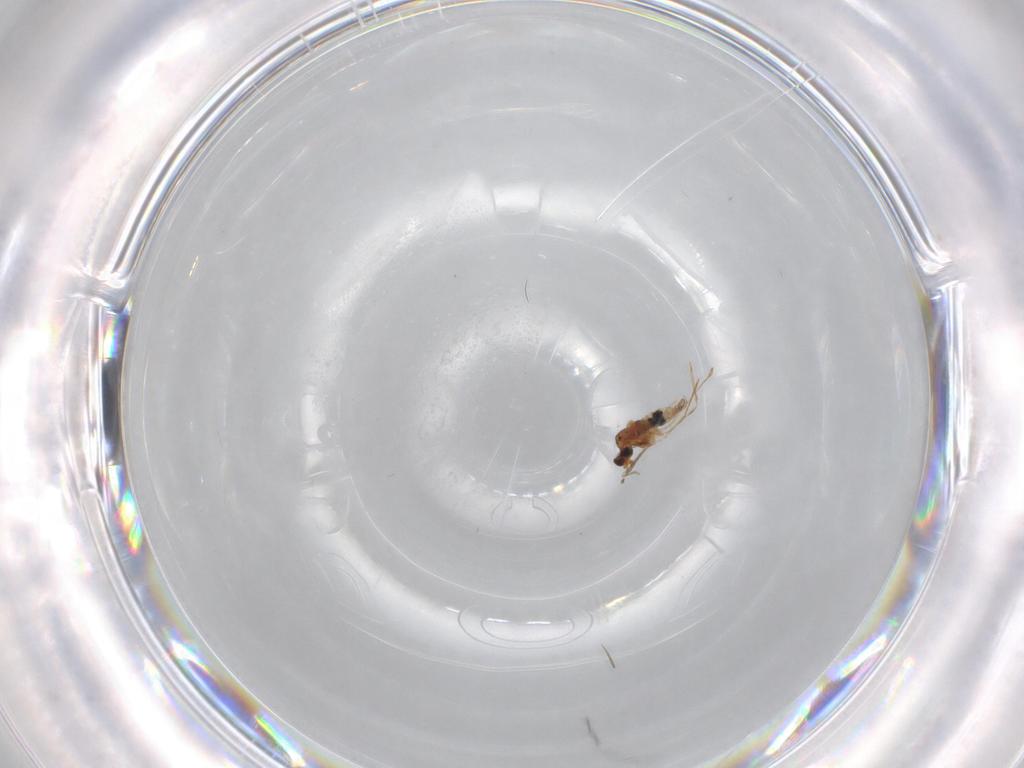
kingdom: Animalia
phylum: Arthropoda
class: Insecta
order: Diptera
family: Cecidomyiidae
